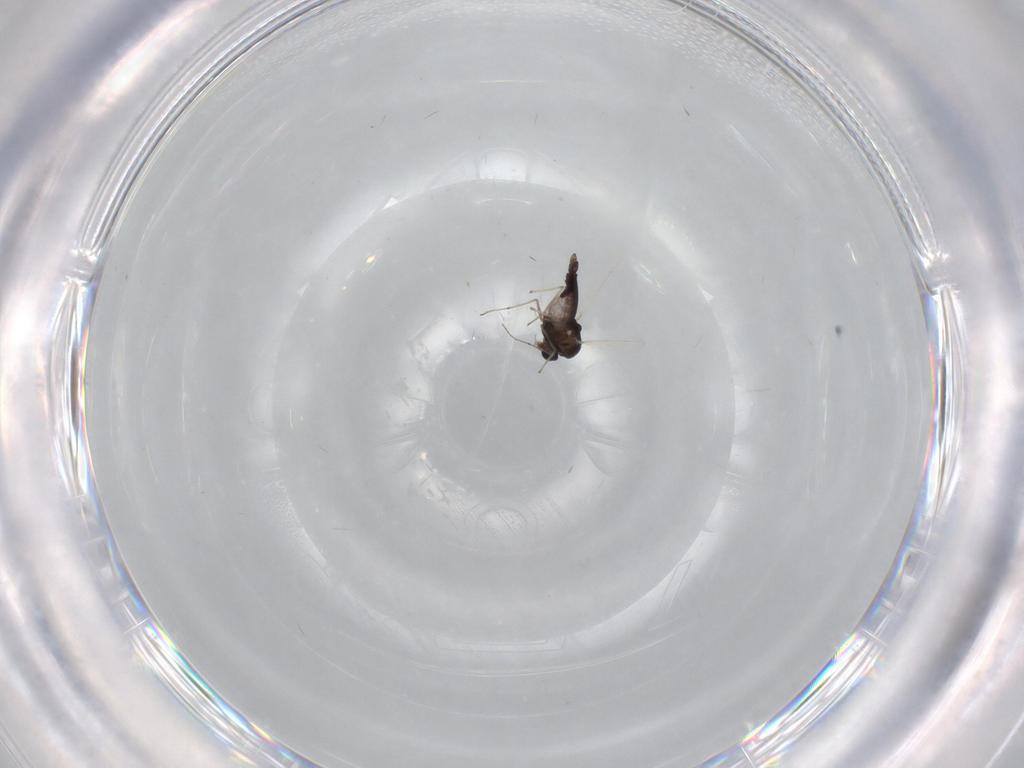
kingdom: Animalia
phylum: Arthropoda
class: Insecta
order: Diptera
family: Chironomidae
